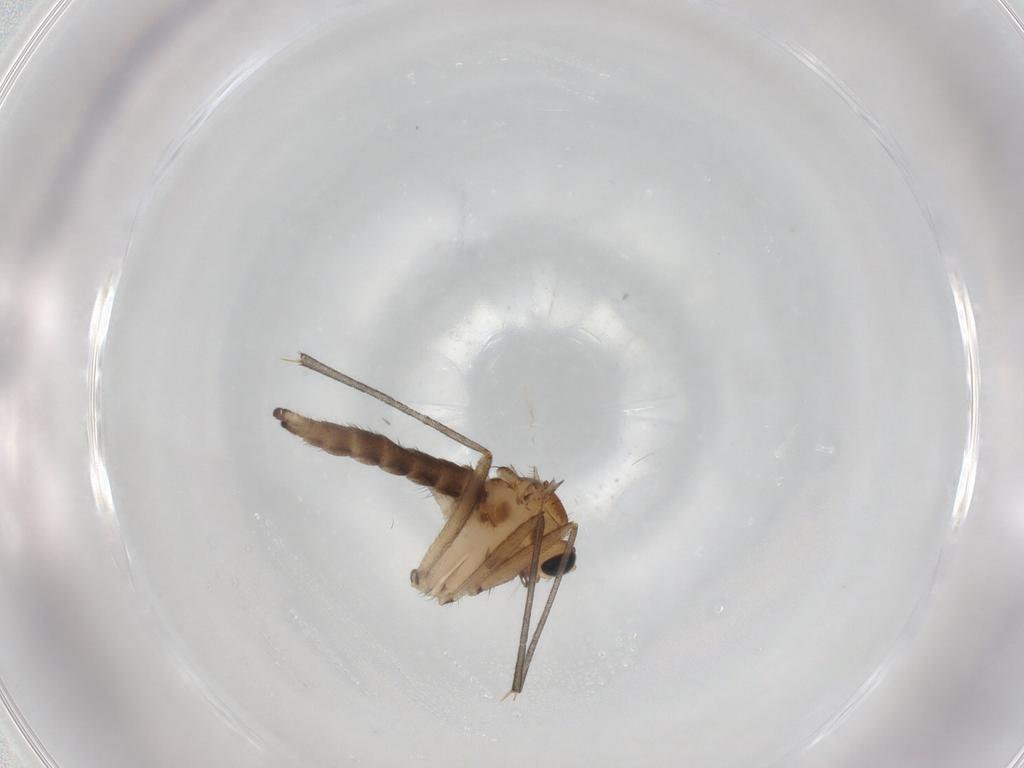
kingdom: Animalia
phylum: Arthropoda
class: Insecta
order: Diptera
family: Sciaridae
